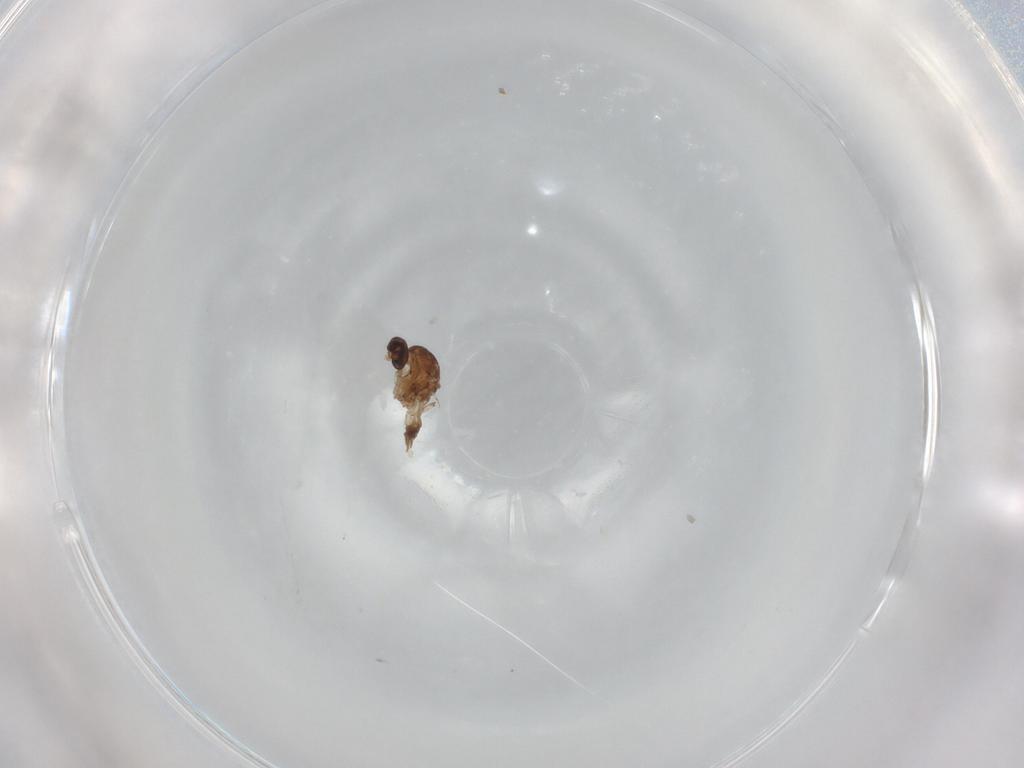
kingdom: Animalia
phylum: Arthropoda
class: Insecta
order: Diptera
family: Ceratopogonidae
